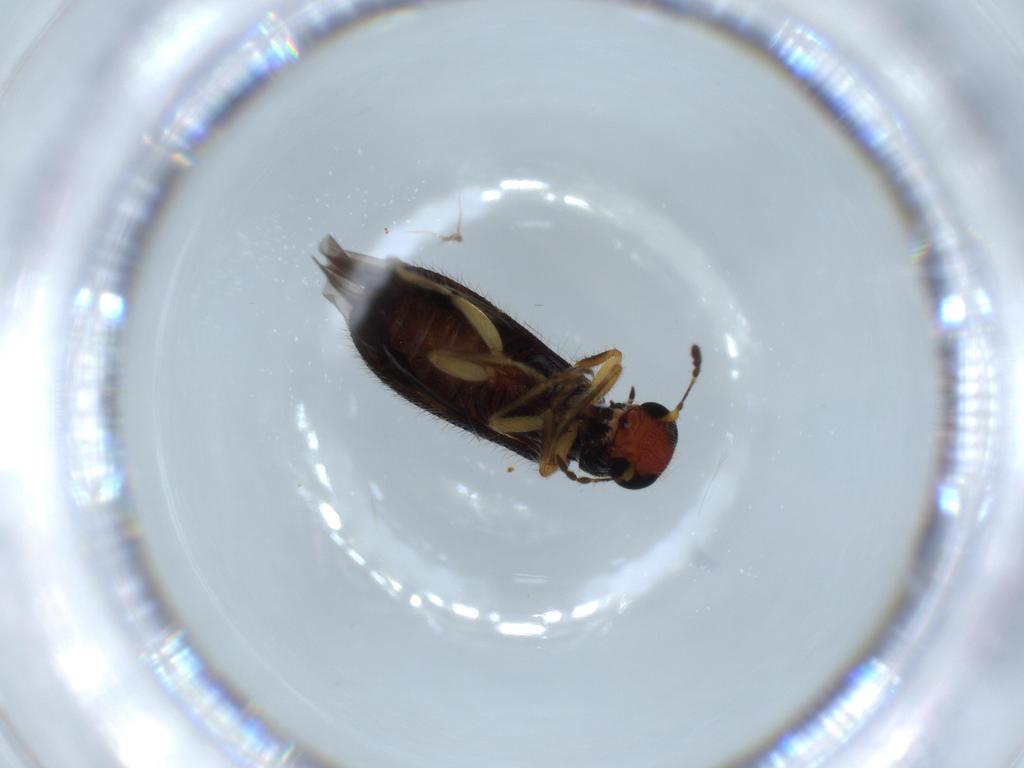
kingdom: Animalia
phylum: Arthropoda
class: Insecta
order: Coleoptera
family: Cleridae
